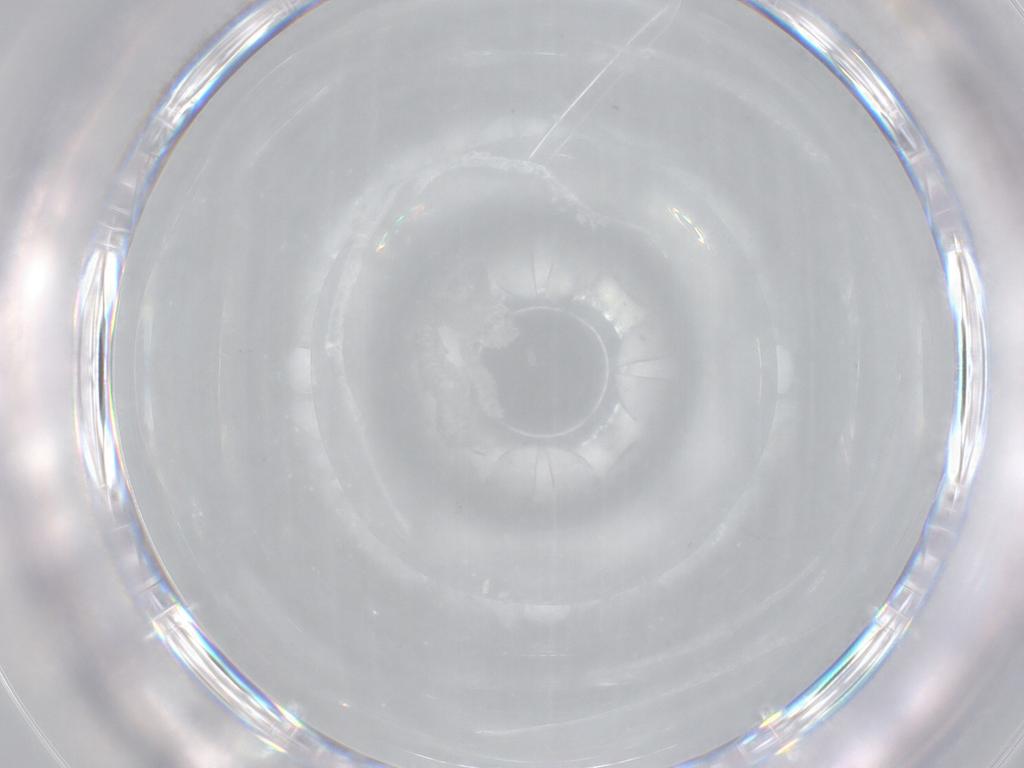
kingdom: Animalia
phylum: Arthropoda
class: Insecta
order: Diptera
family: Cecidomyiidae
